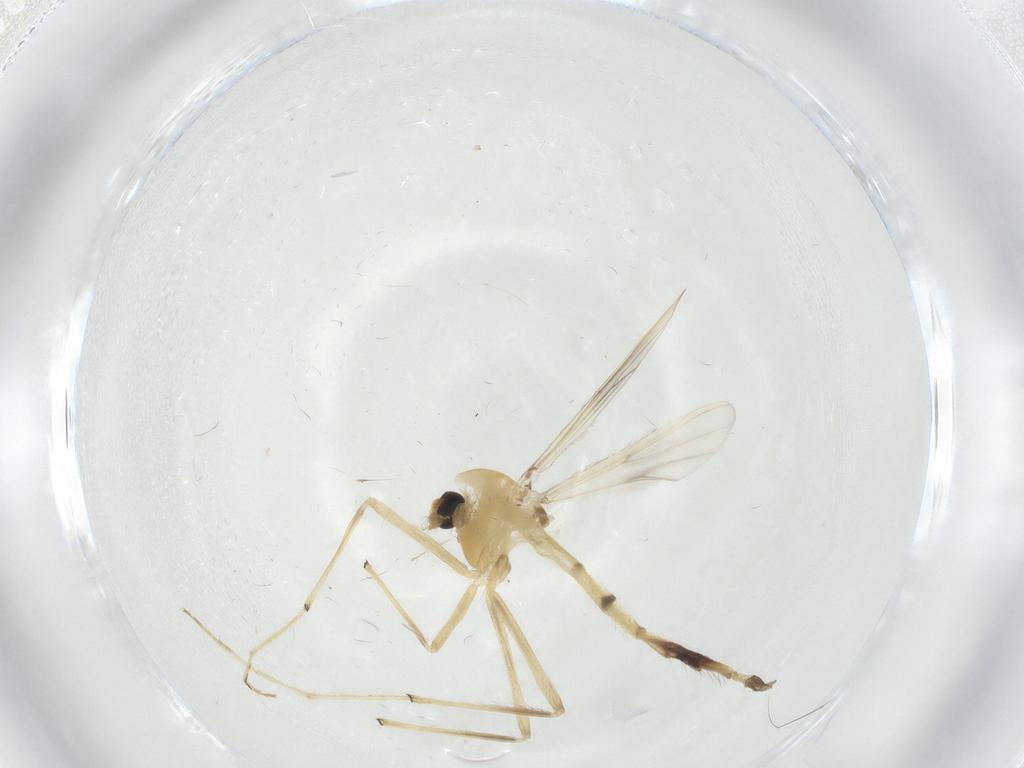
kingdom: Animalia
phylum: Arthropoda
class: Insecta
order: Diptera
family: Chironomidae
